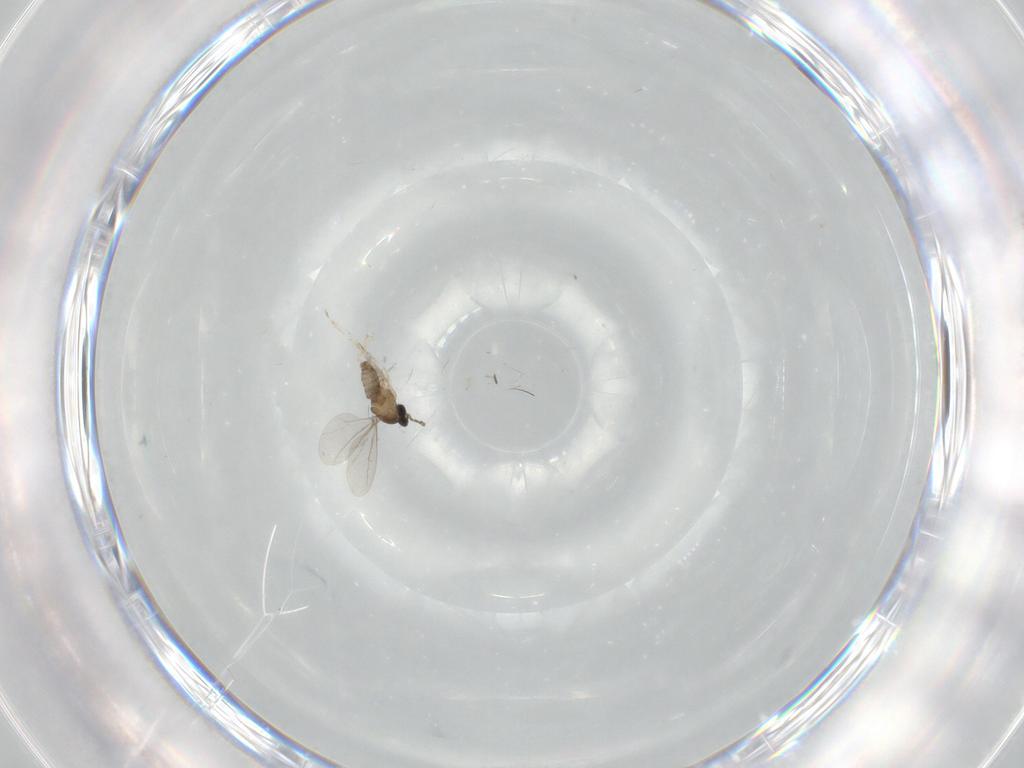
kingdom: Animalia
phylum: Arthropoda
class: Insecta
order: Diptera
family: Cecidomyiidae
